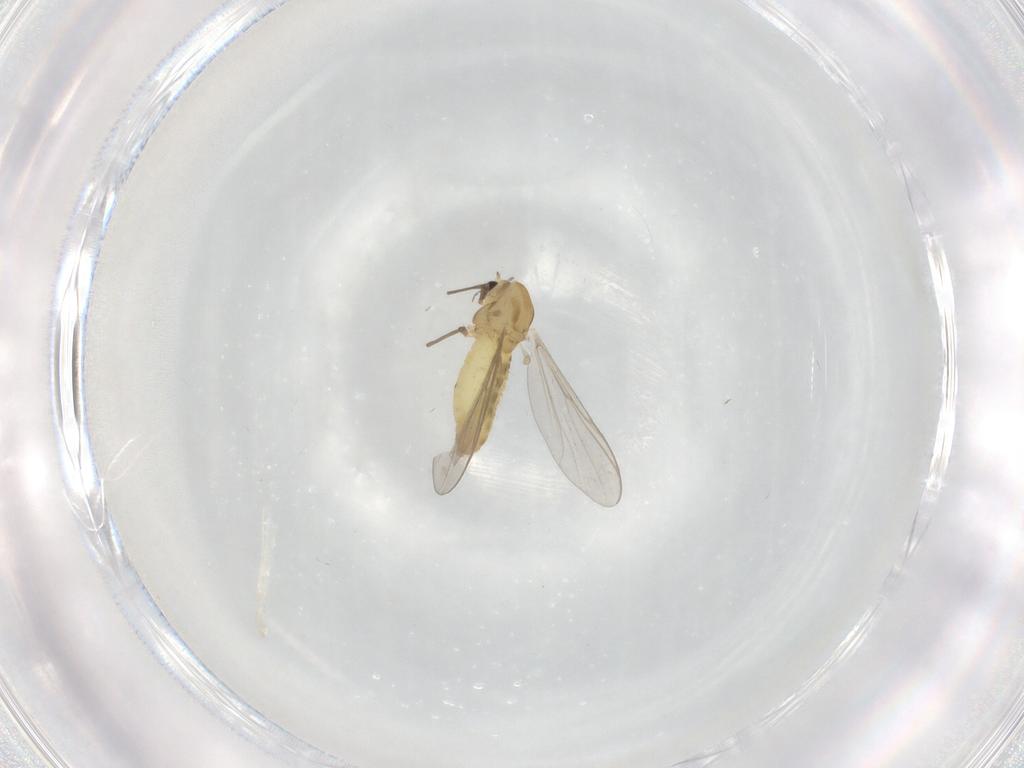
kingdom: Animalia
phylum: Arthropoda
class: Insecta
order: Diptera
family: Chironomidae
